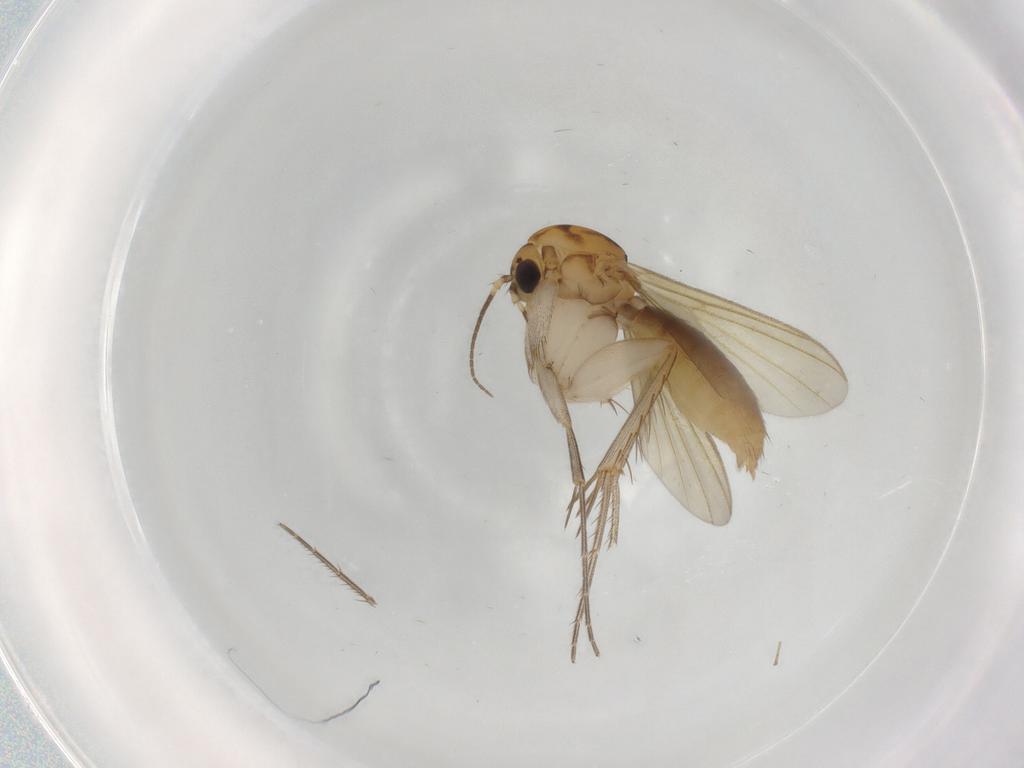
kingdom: Animalia
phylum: Arthropoda
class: Insecta
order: Diptera
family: Mycetophilidae
